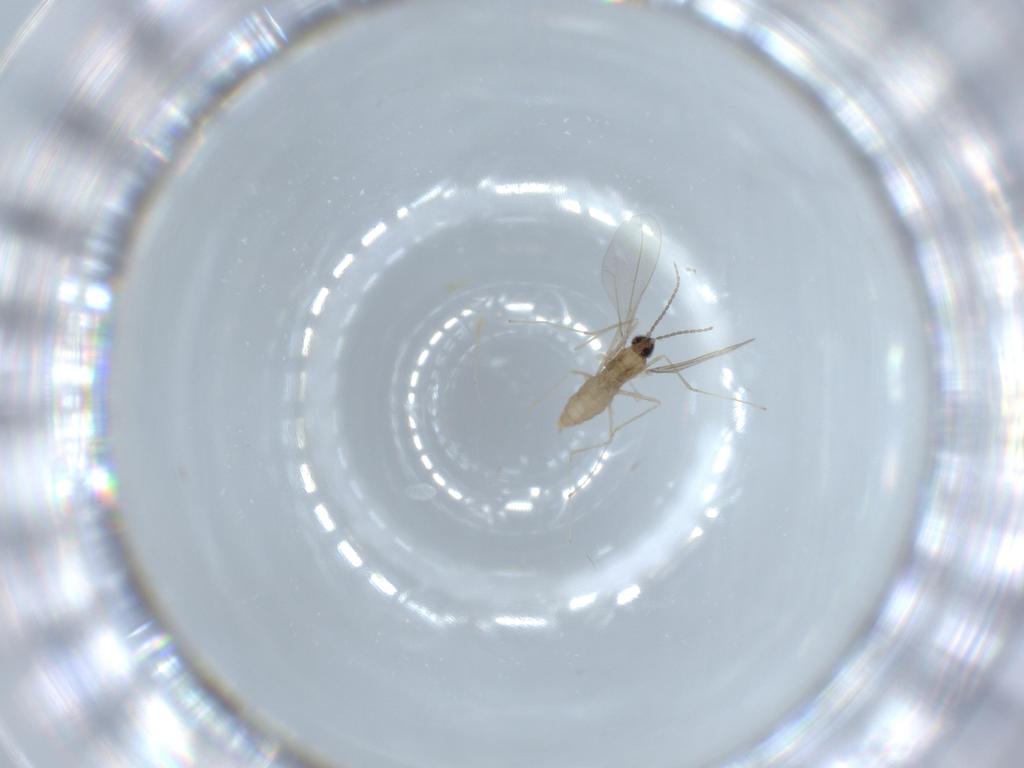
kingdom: Animalia
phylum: Arthropoda
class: Insecta
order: Diptera
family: Cecidomyiidae
